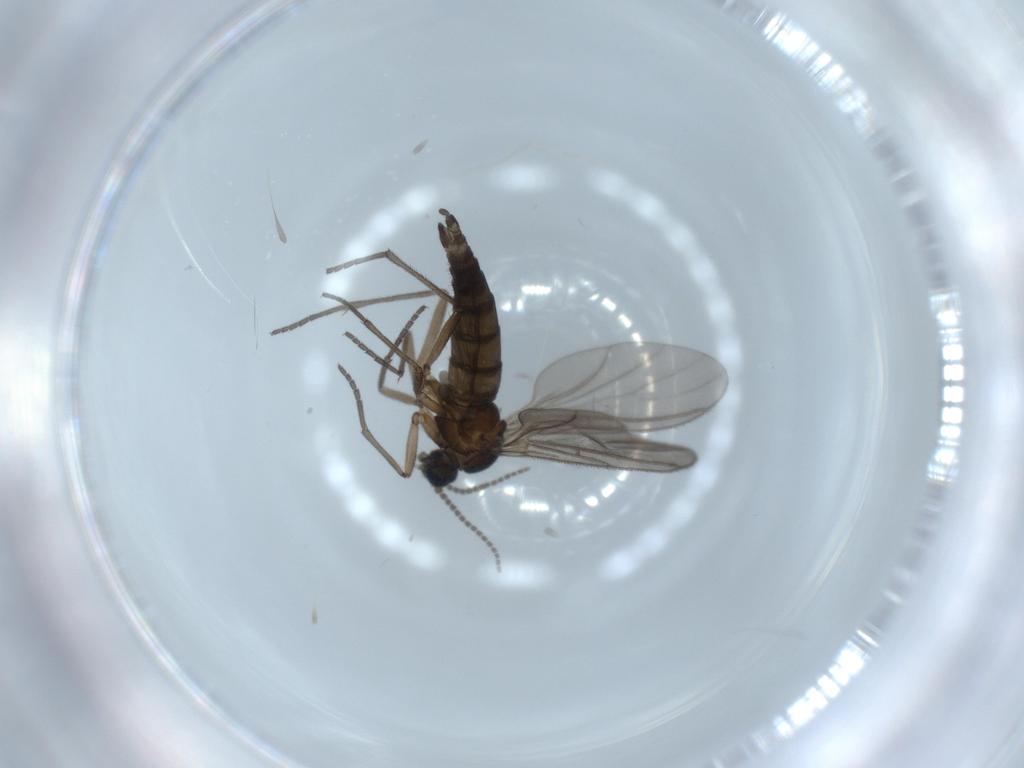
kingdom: Animalia
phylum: Arthropoda
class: Insecta
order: Diptera
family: Sciaridae
